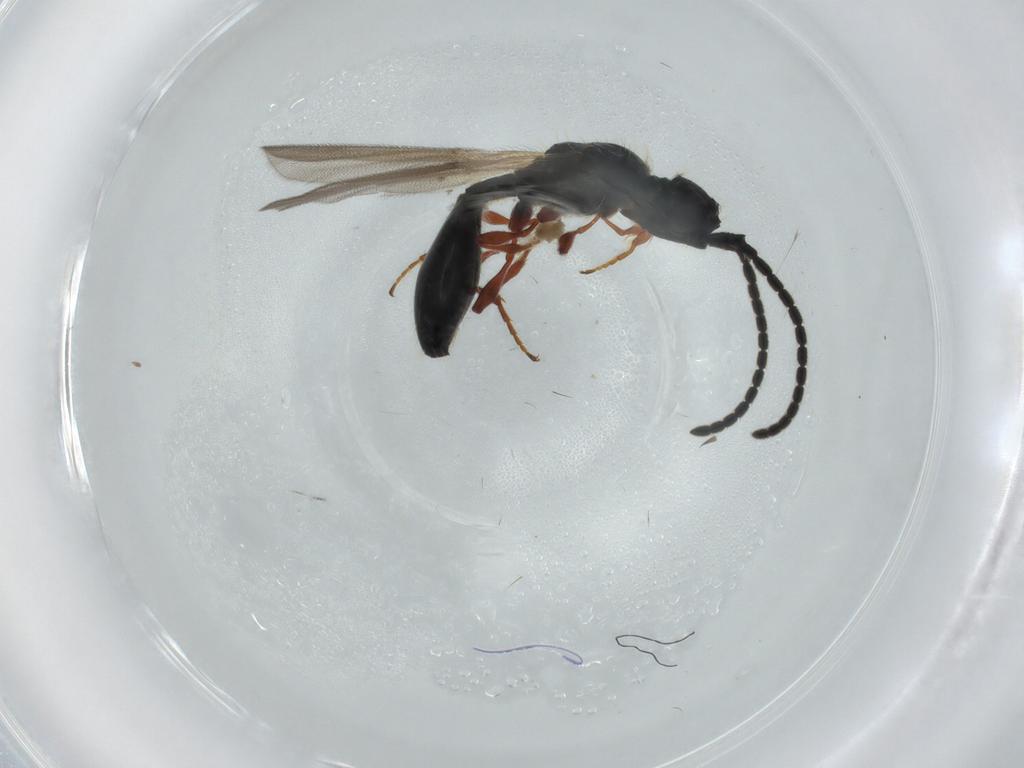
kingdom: Animalia
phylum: Arthropoda
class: Insecta
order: Hymenoptera
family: Diapriidae
